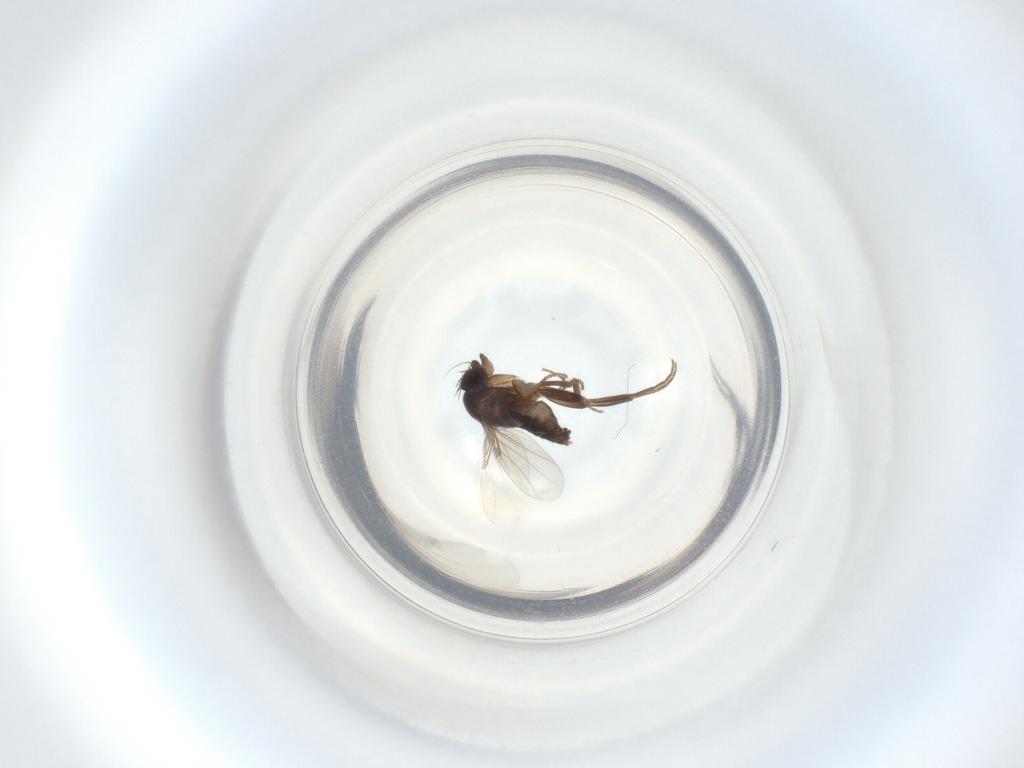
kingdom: Animalia
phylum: Arthropoda
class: Insecta
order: Diptera
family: Phoridae
